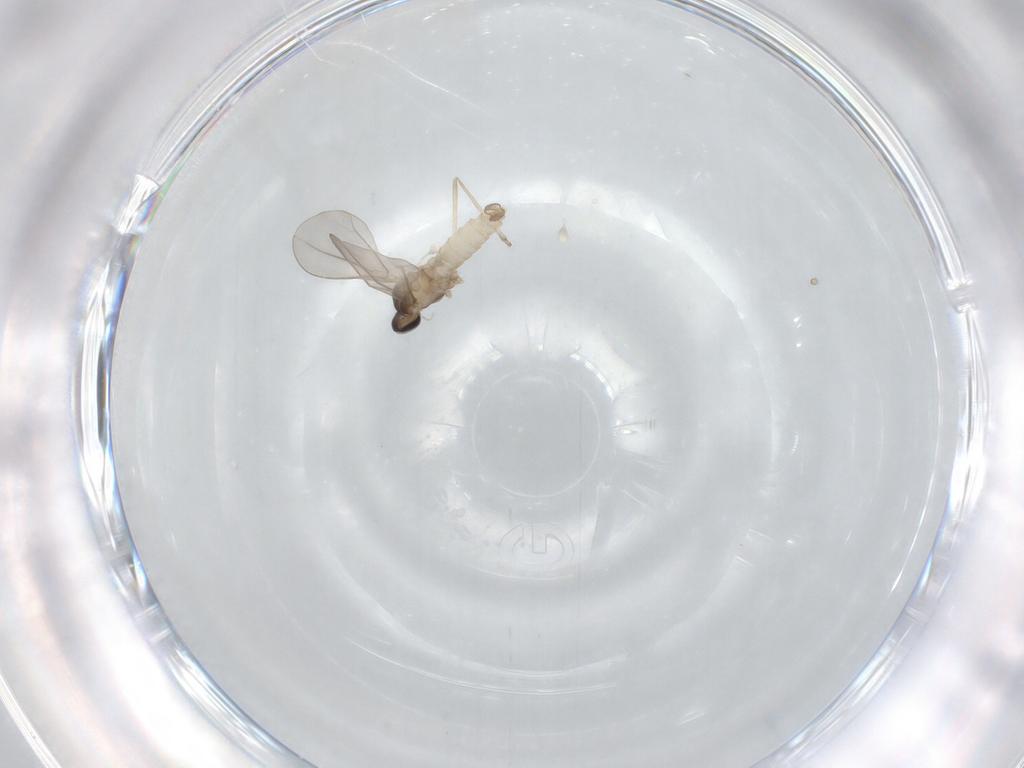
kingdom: Animalia
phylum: Arthropoda
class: Insecta
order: Diptera
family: Cecidomyiidae
